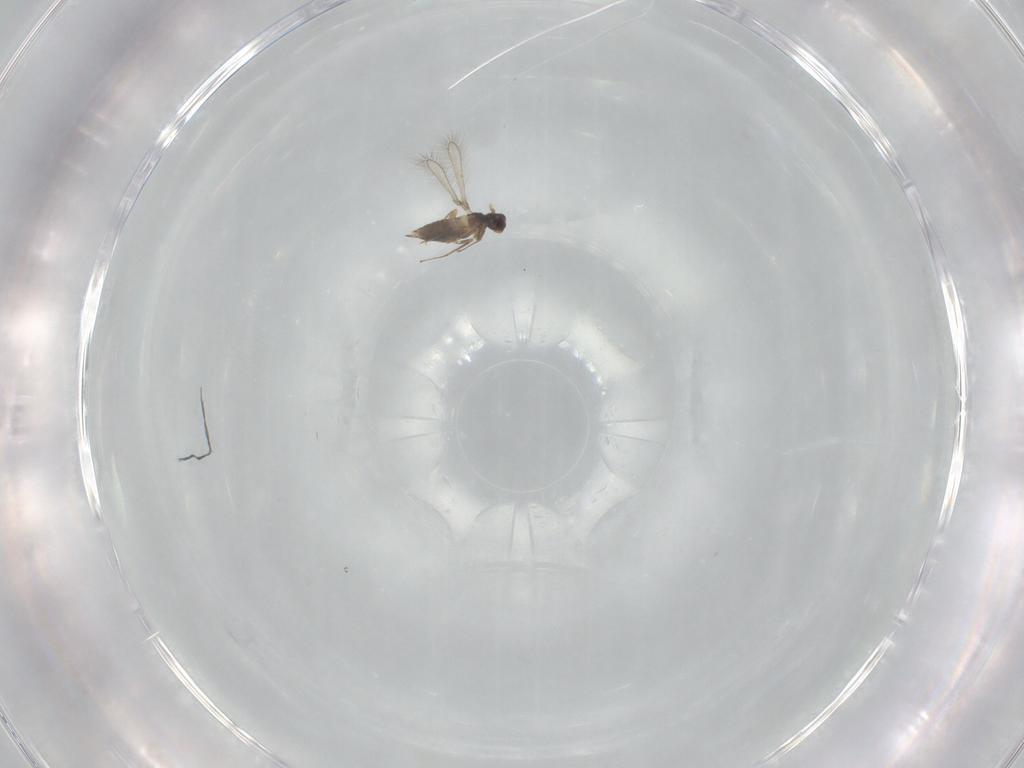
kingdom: Animalia
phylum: Arthropoda
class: Insecta
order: Hymenoptera
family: Mymaridae
